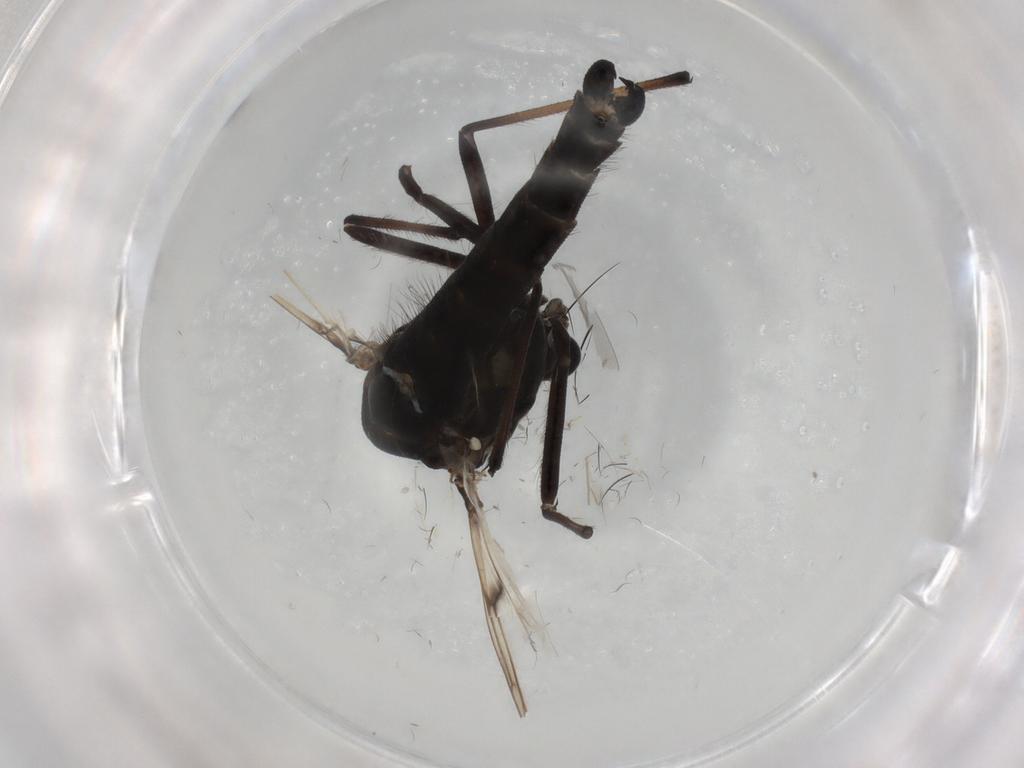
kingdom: Animalia
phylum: Arthropoda
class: Insecta
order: Diptera
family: Chironomidae
